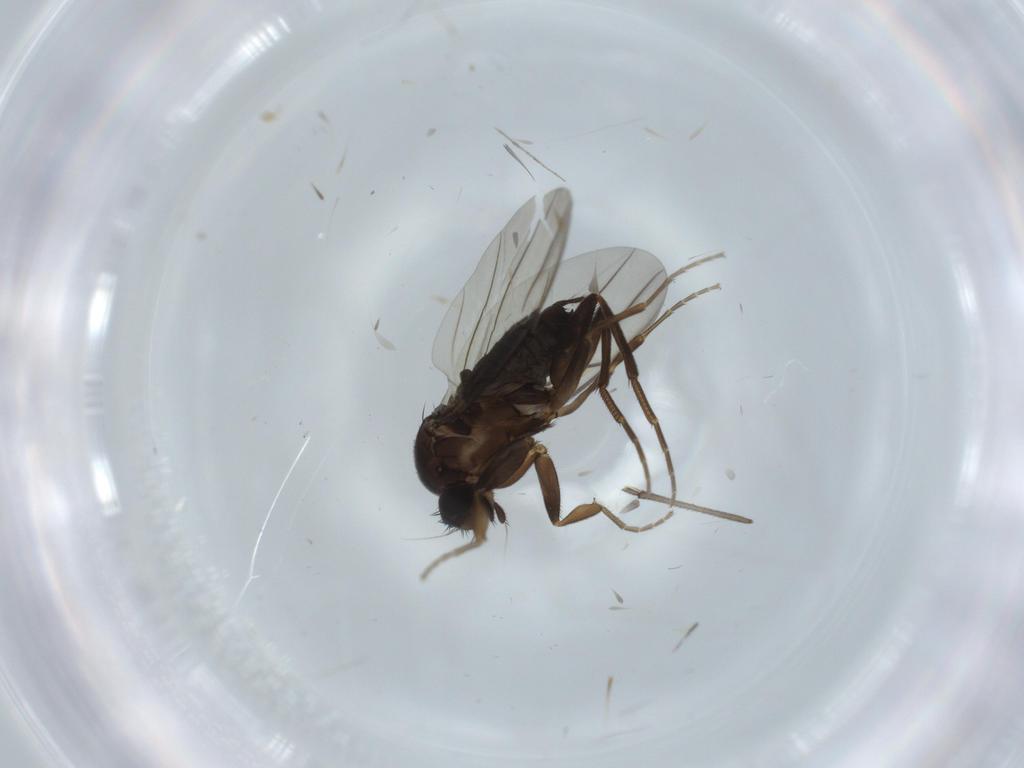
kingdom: Animalia
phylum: Arthropoda
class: Insecta
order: Diptera
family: Cecidomyiidae
